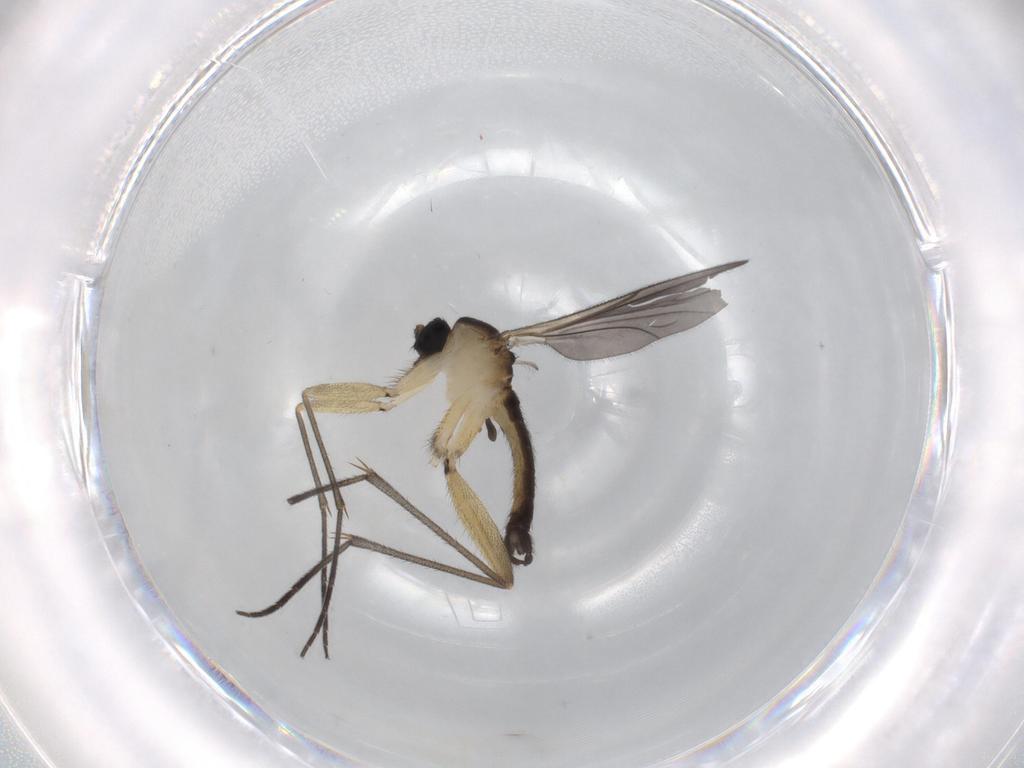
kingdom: Animalia
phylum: Arthropoda
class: Insecta
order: Diptera
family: Sciaridae
